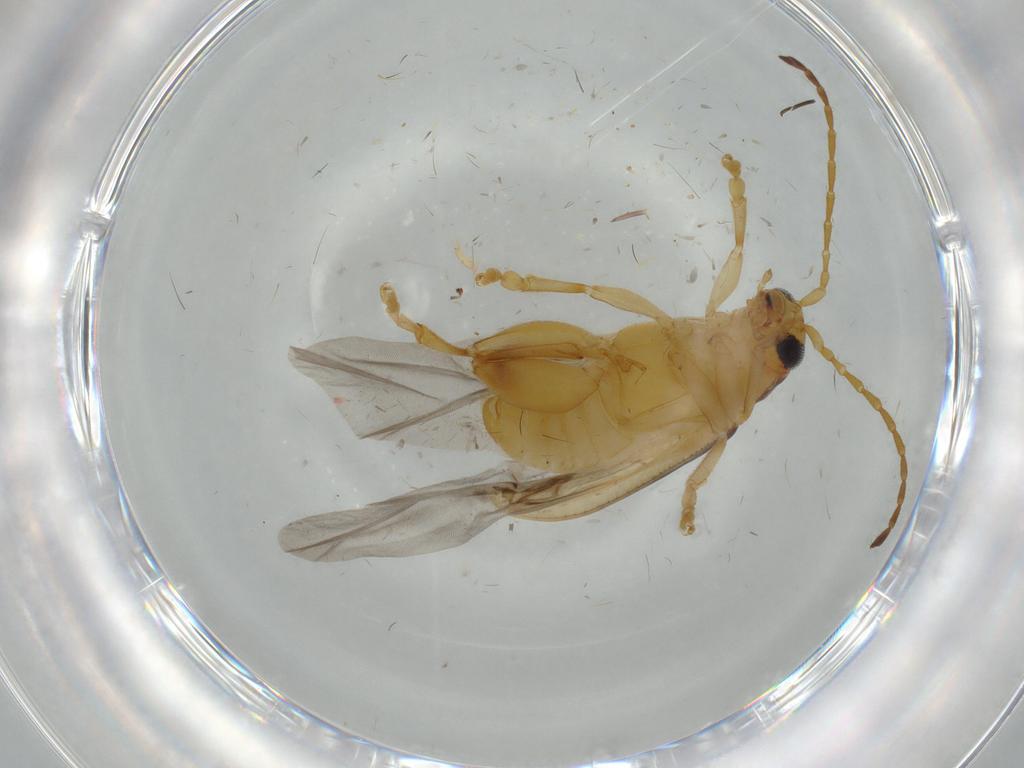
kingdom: Animalia
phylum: Arthropoda
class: Insecta
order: Coleoptera
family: Chrysomelidae
